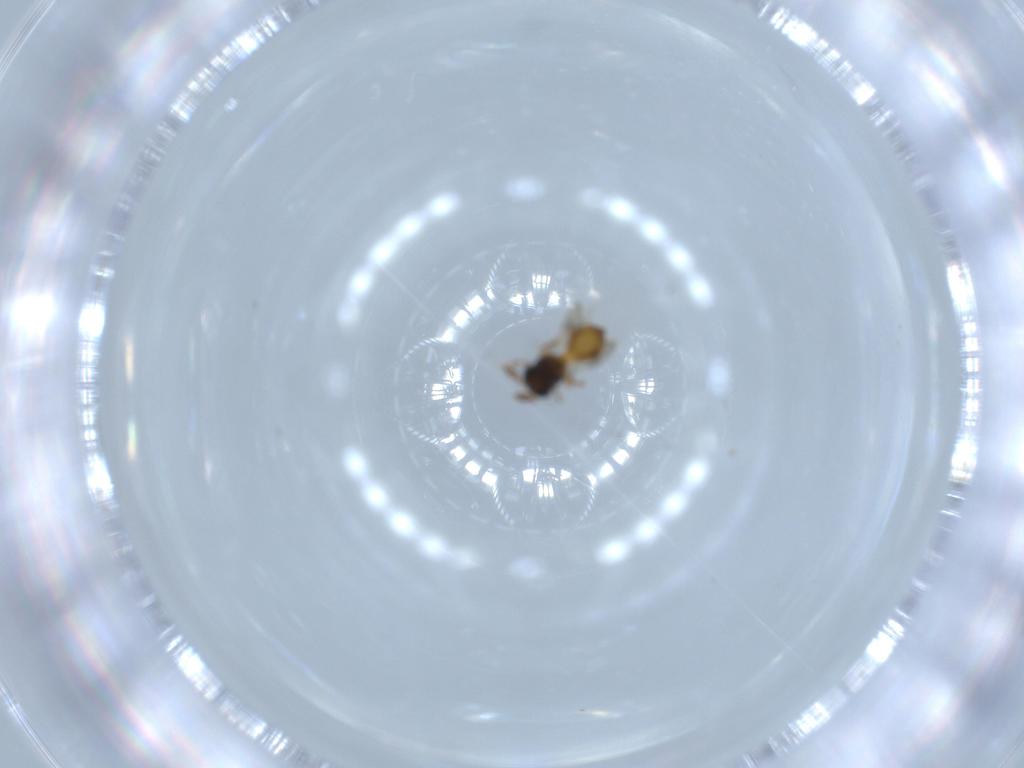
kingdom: Animalia
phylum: Arthropoda
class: Insecta
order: Hymenoptera
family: Scelionidae
